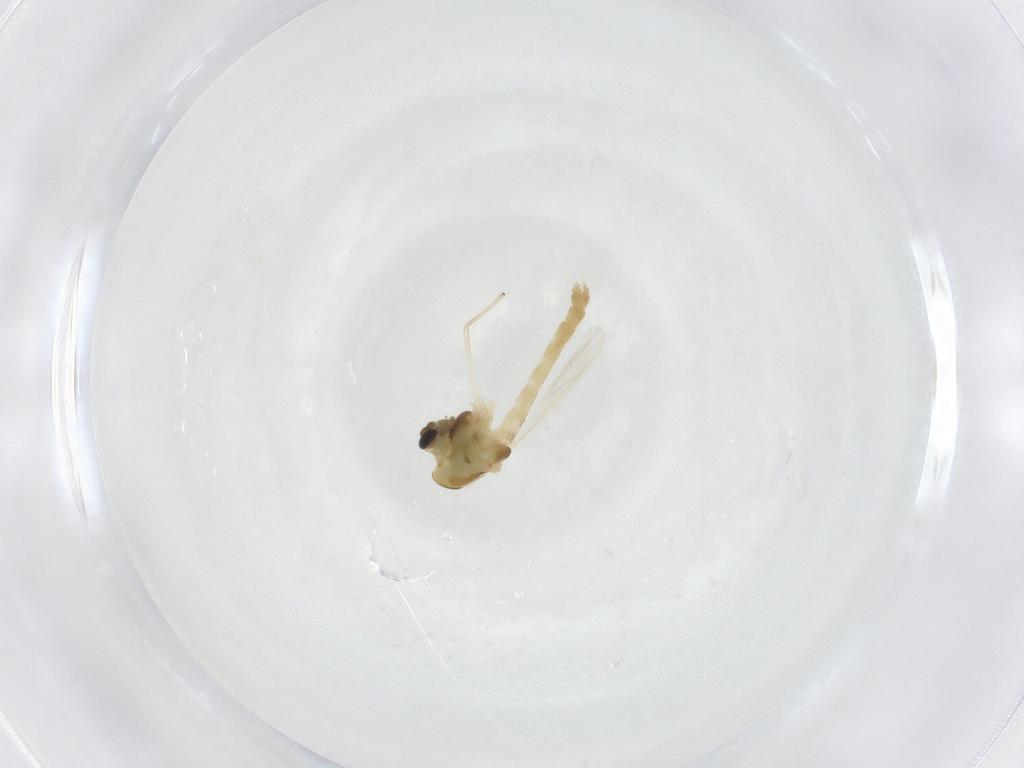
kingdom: Animalia
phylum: Arthropoda
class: Insecta
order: Diptera
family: Chironomidae
